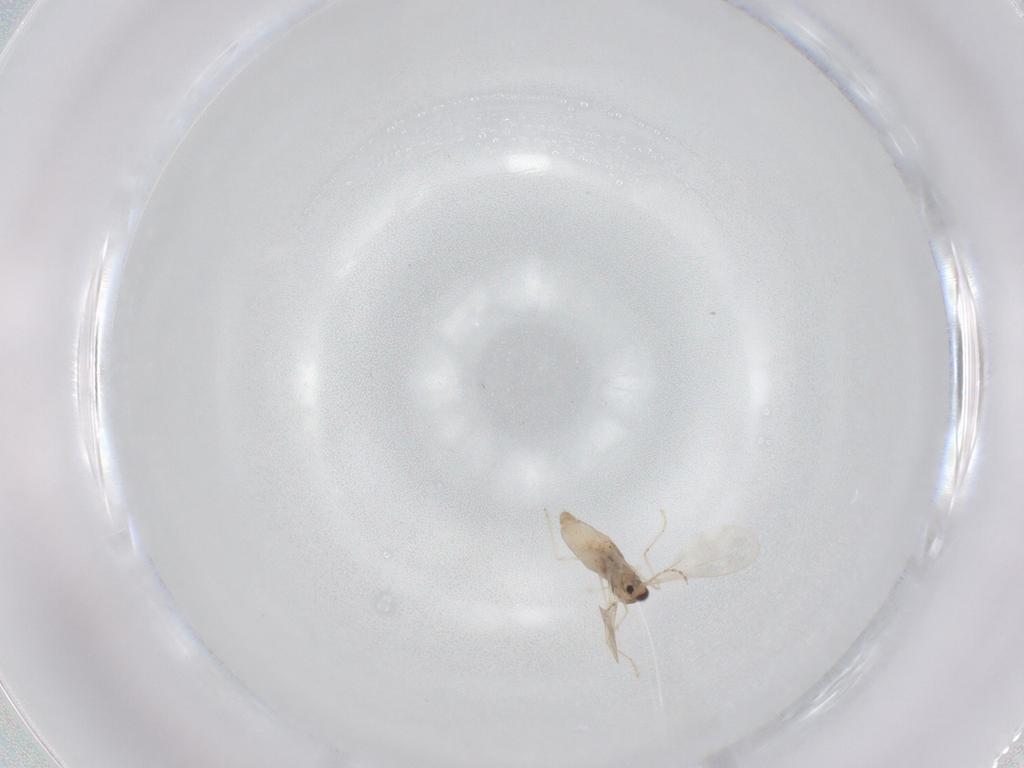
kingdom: Animalia
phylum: Arthropoda
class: Insecta
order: Diptera
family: Cecidomyiidae
